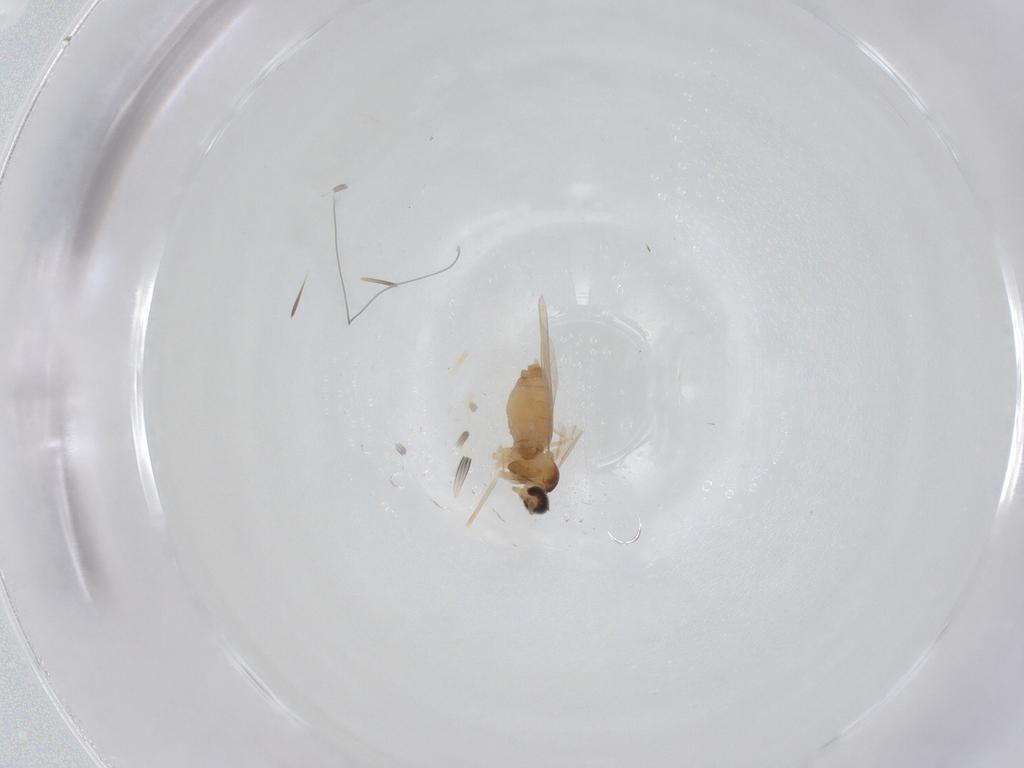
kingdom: Animalia
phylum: Arthropoda
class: Insecta
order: Diptera
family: Cecidomyiidae
